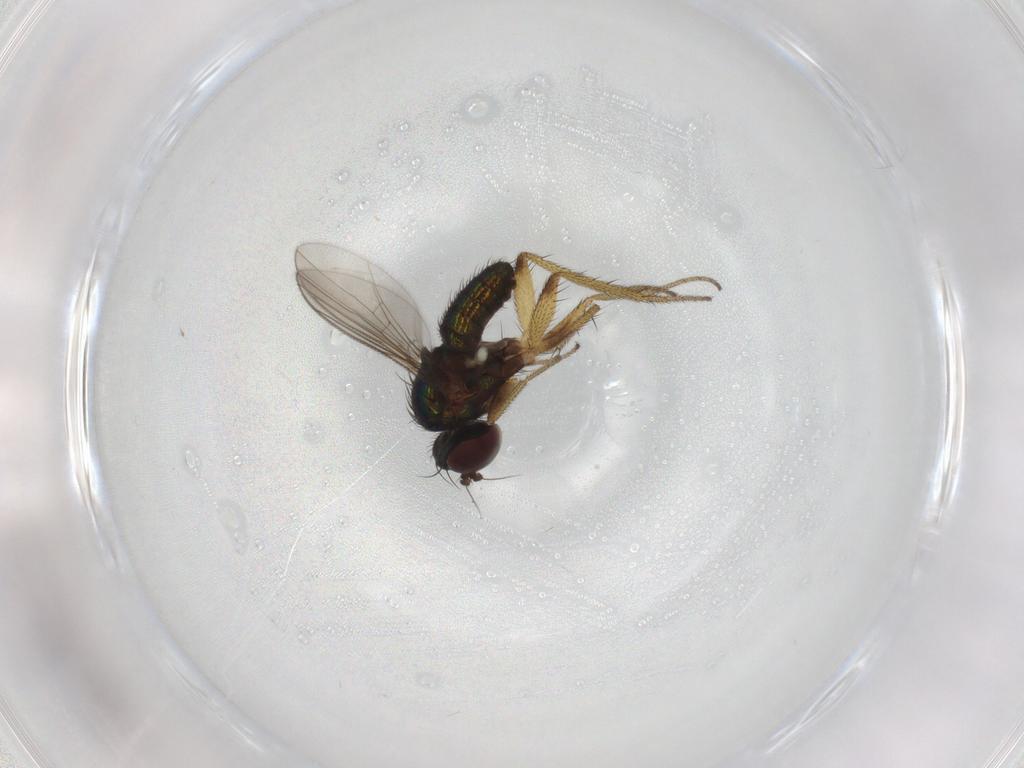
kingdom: Animalia
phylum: Arthropoda
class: Insecta
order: Diptera
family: Dolichopodidae
